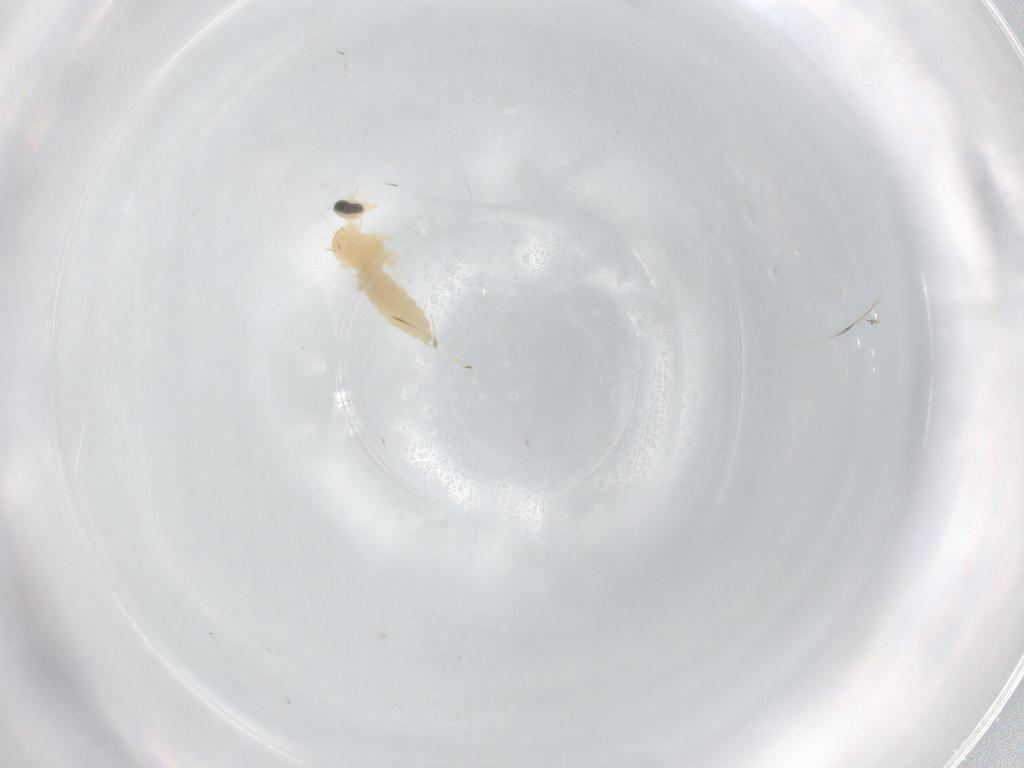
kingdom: Animalia
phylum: Arthropoda
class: Insecta
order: Diptera
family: Cecidomyiidae
